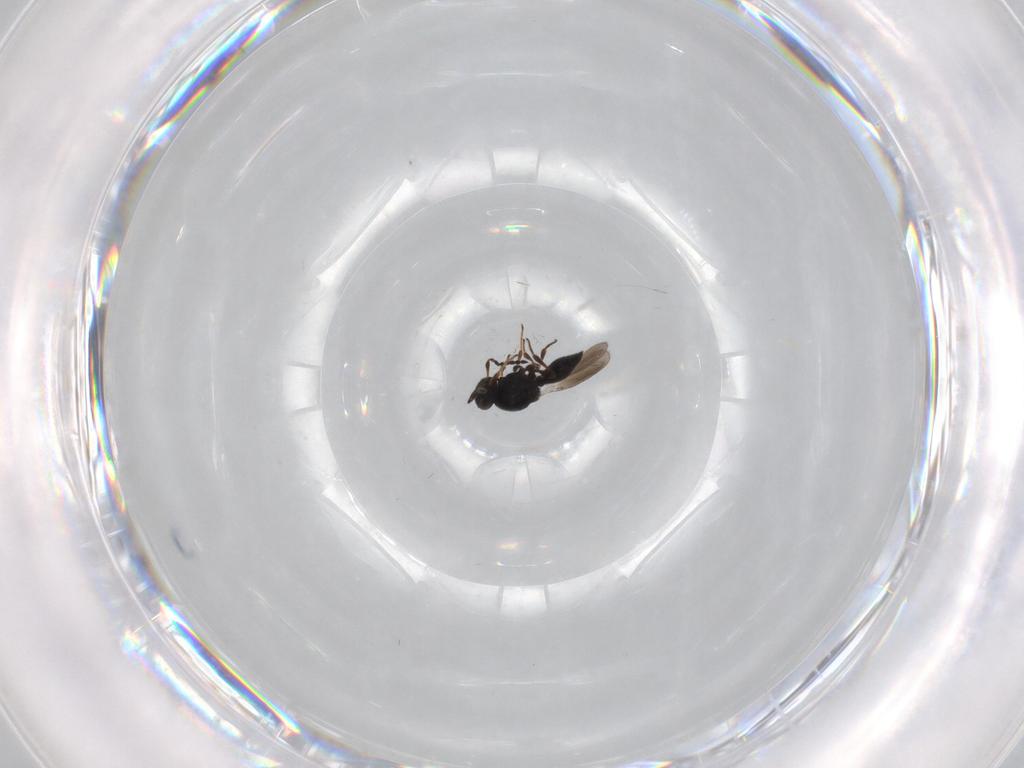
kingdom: Animalia
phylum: Arthropoda
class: Insecta
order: Hymenoptera
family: Platygastridae
